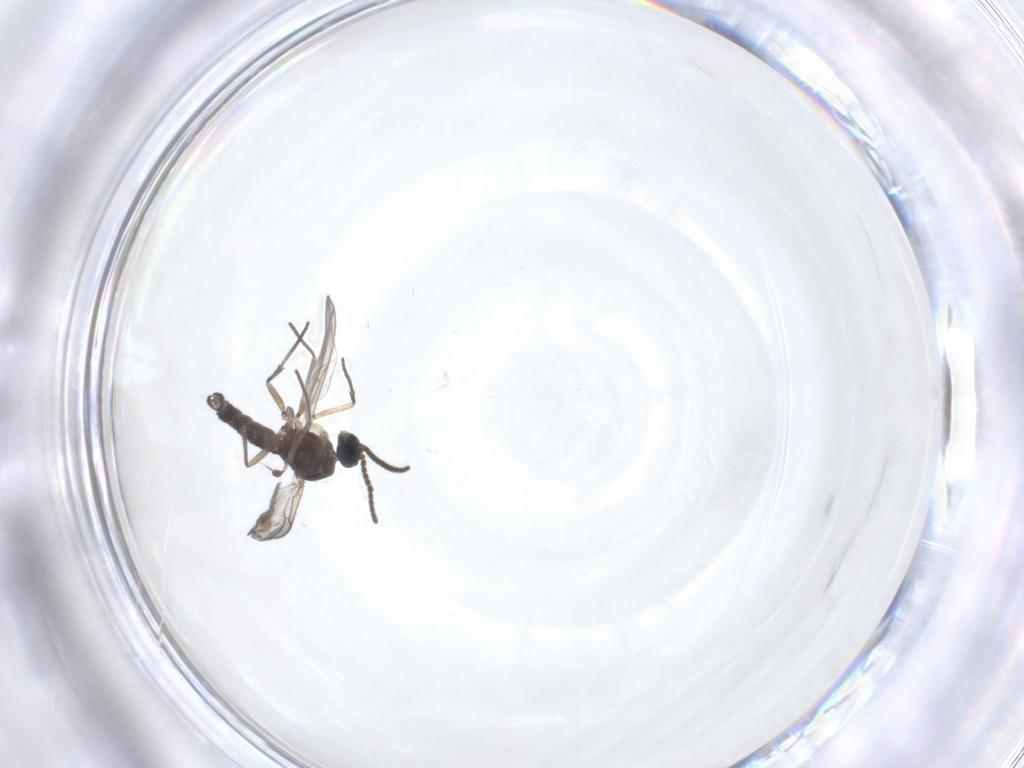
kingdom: Animalia
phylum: Arthropoda
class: Insecta
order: Diptera
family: Sciaridae
